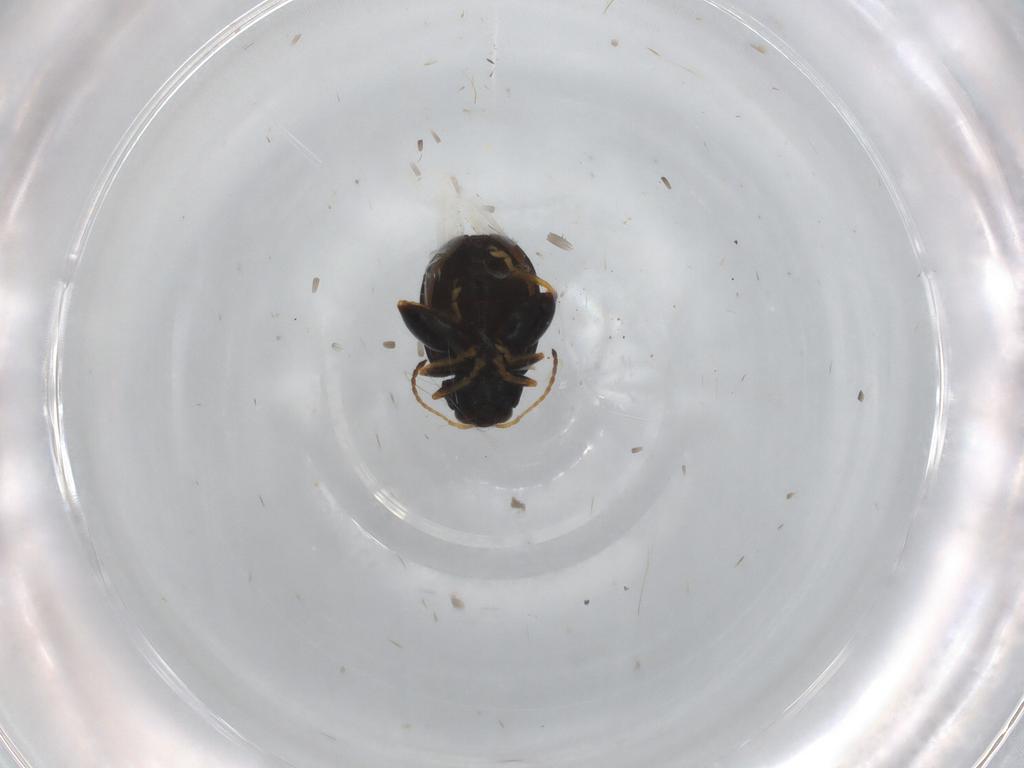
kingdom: Animalia
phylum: Arthropoda
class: Insecta
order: Coleoptera
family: Chrysomelidae
